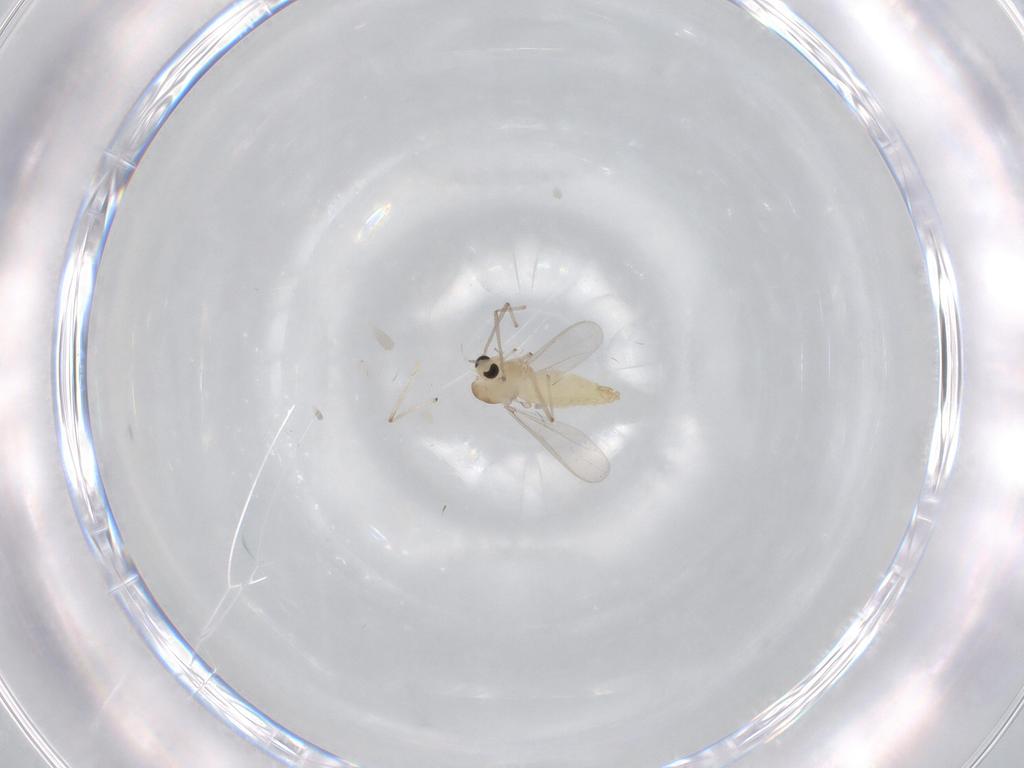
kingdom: Animalia
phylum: Arthropoda
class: Insecta
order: Diptera
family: Chironomidae
